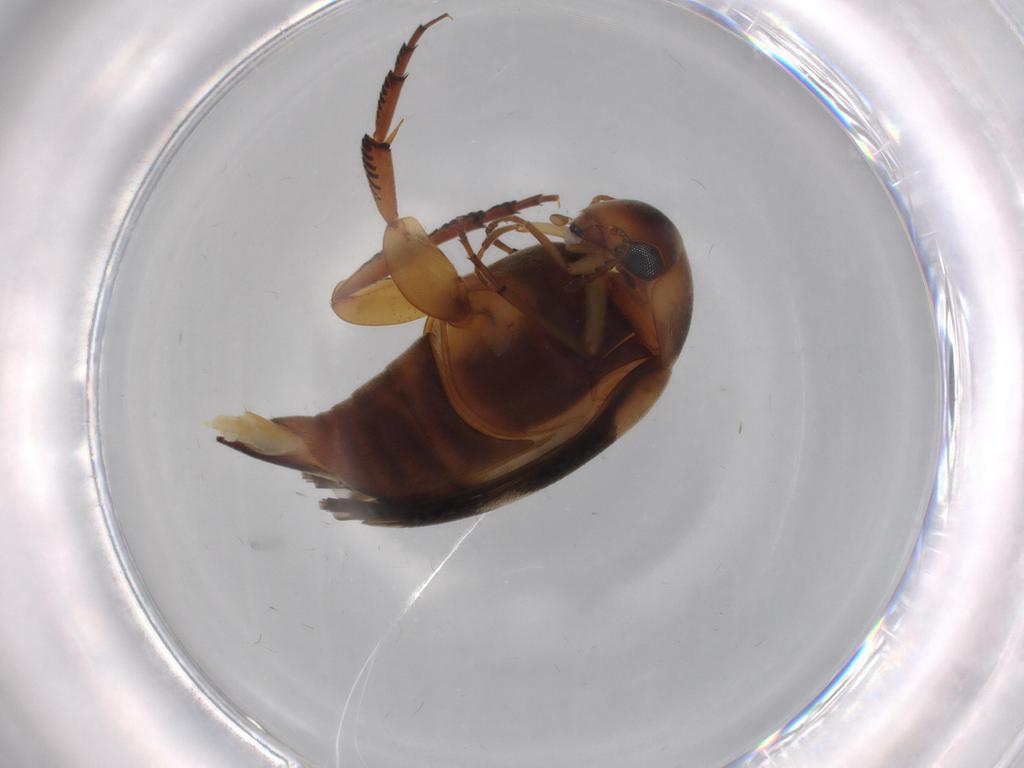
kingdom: Animalia
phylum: Arthropoda
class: Insecta
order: Coleoptera
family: Mordellidae
